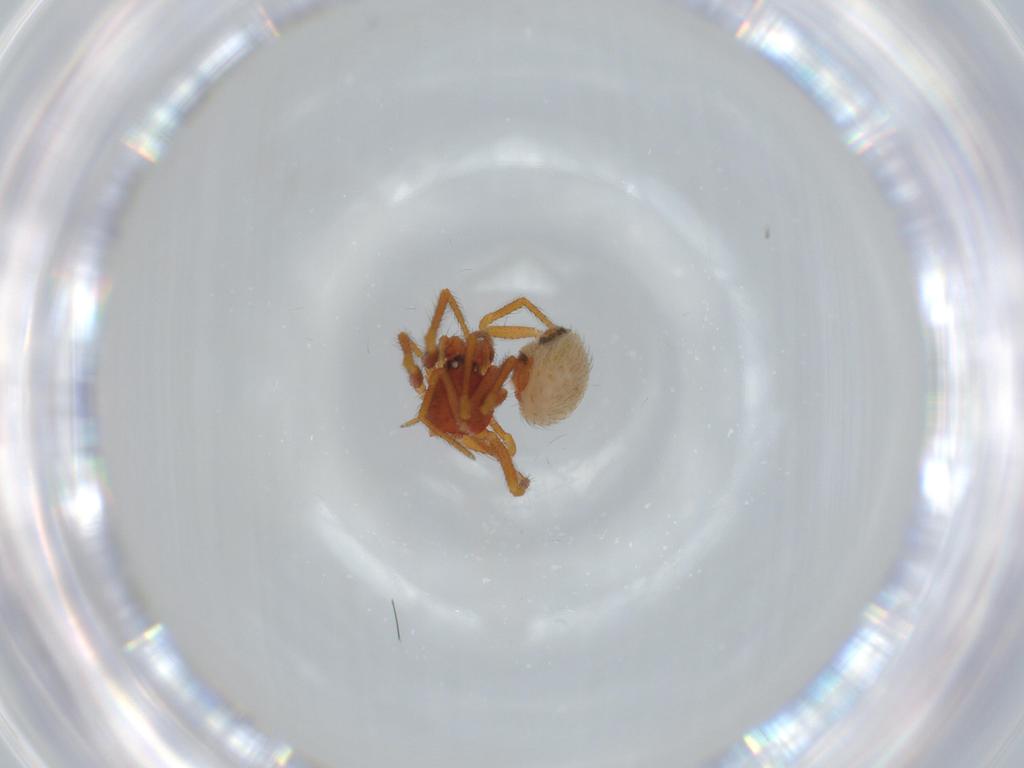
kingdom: Animalia
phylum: Arthropoda
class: Arachnida
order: Araneae
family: Theridiidae
